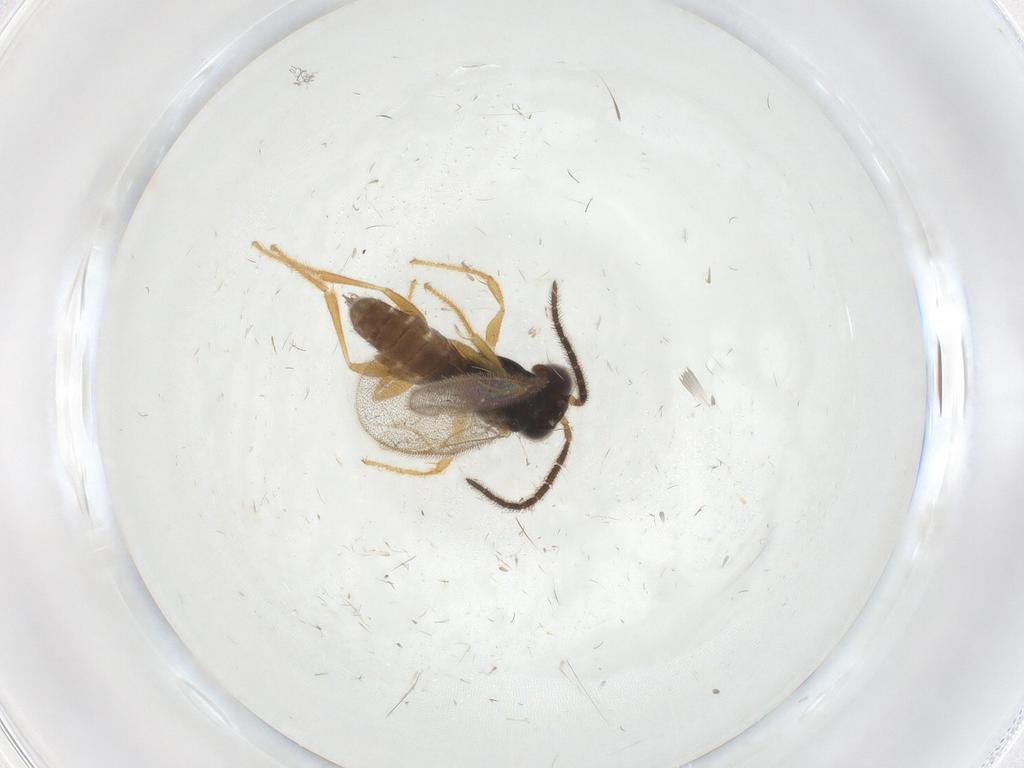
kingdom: Animalia
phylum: Arthropoda
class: Insecta
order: Hymenoptera
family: Dryinidae
